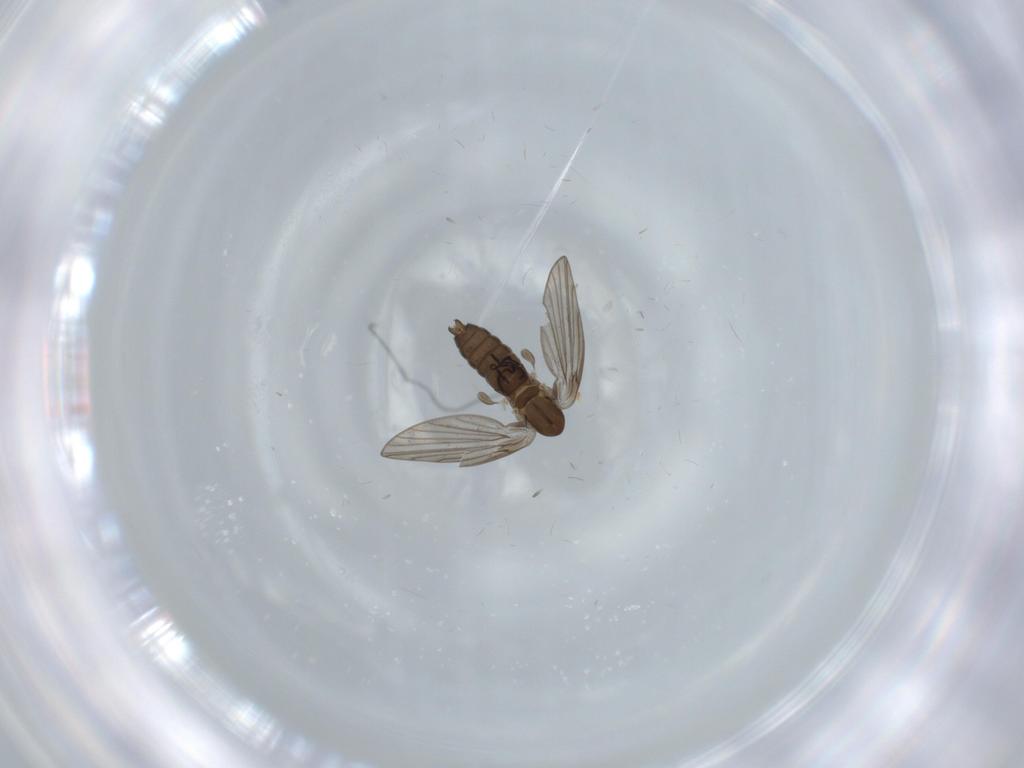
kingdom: Animalia
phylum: Arthropoda
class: Insecta
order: Diptera
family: Psychodidae
